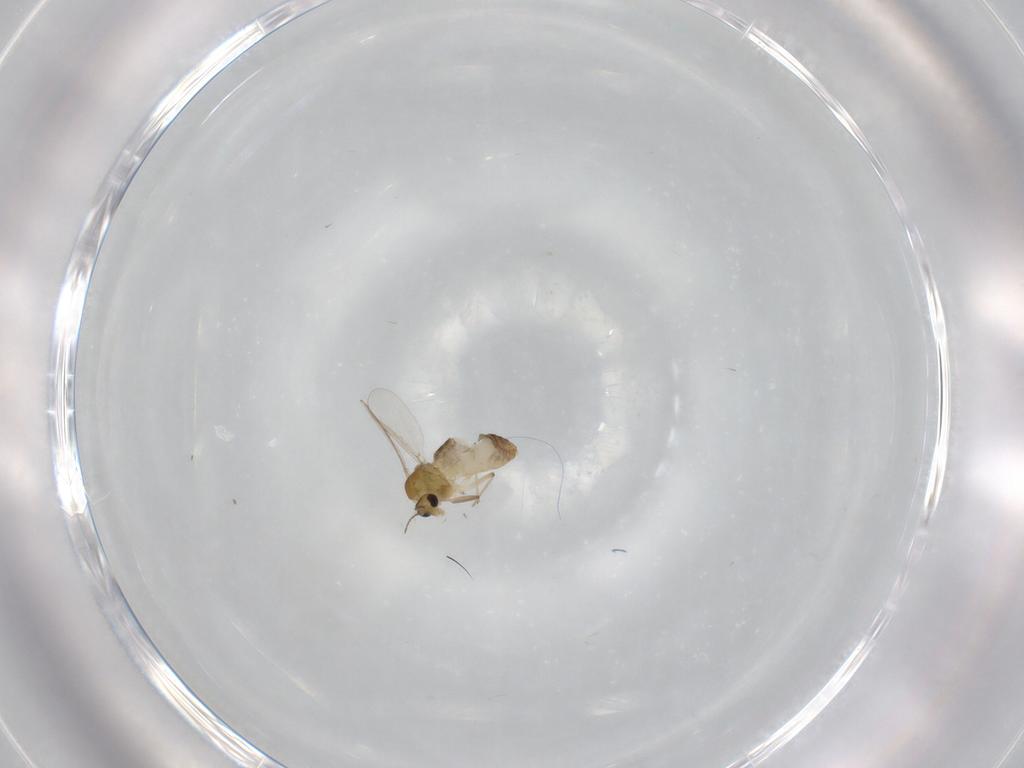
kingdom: Animalia
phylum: Arthropoda
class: Insecta
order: Diptera
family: Chironomidae
